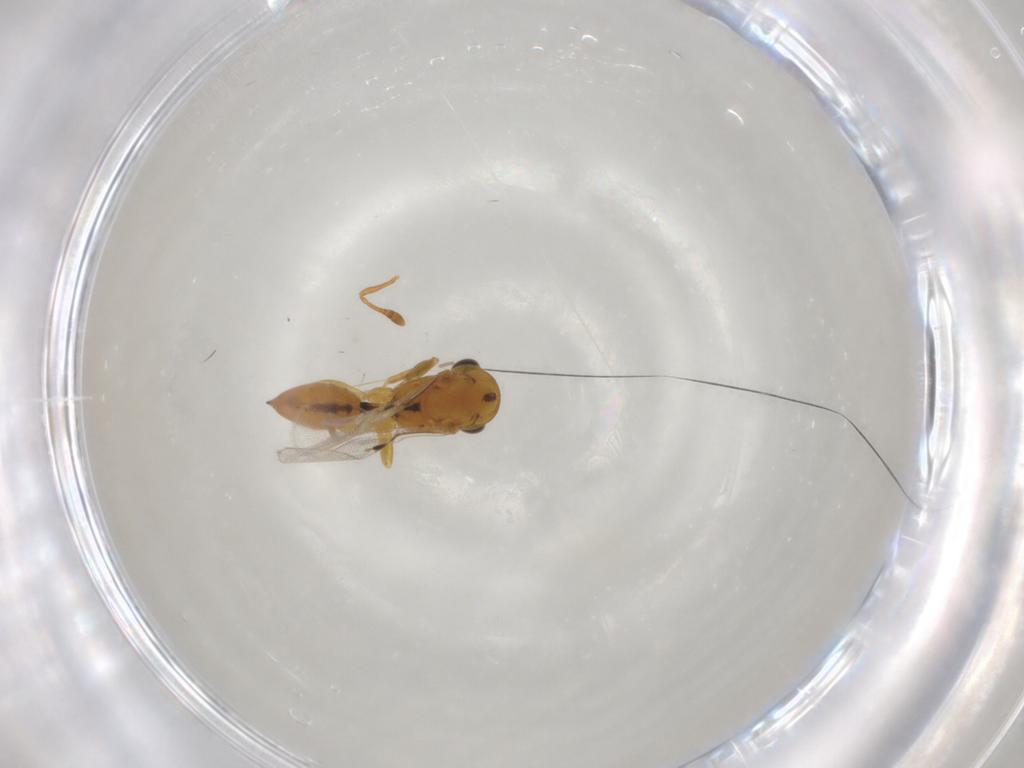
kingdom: Animalia
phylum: Arthropoda
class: Insecta
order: Hymenoptera
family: Eurytomidae
